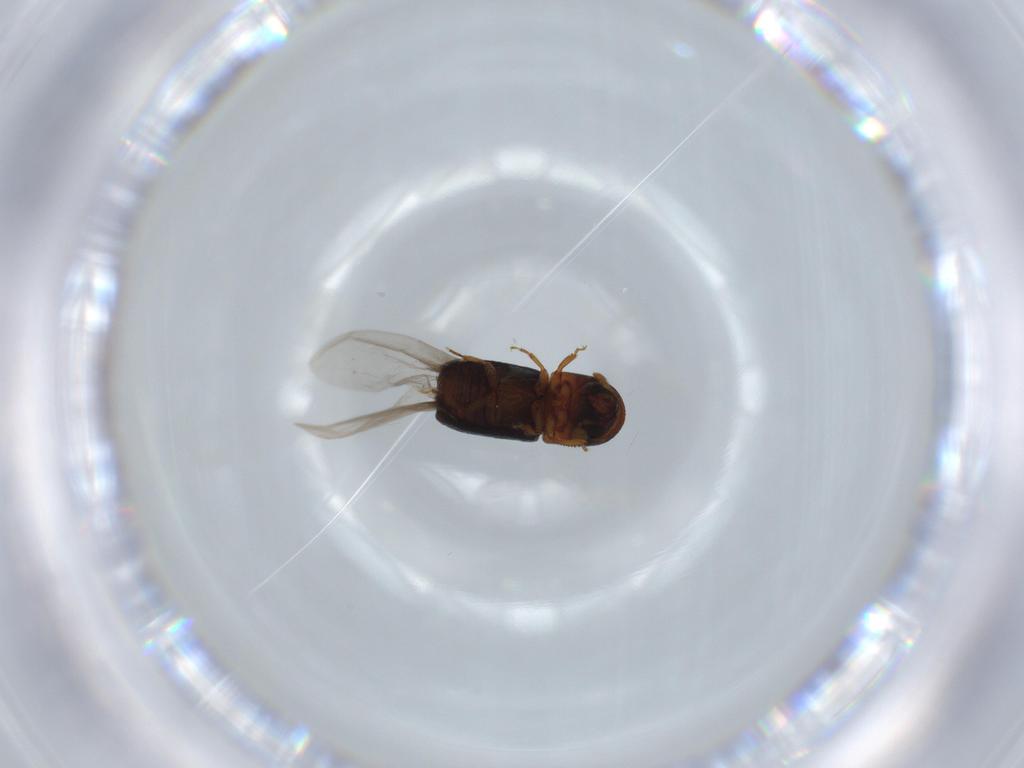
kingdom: Animalia
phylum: Arthropoda
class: Insecta
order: Coleoptera
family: Curculionidae
